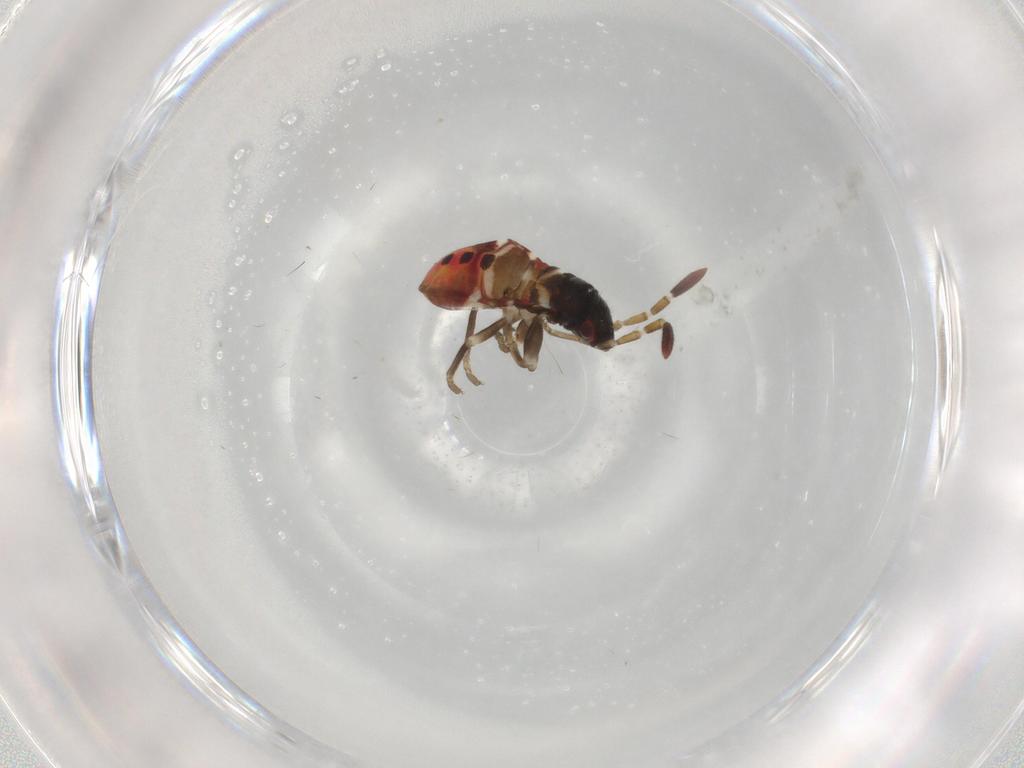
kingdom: Animalia
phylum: Arthropoda
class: Insecta
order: Hemiptera
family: Rhyparochromidae
